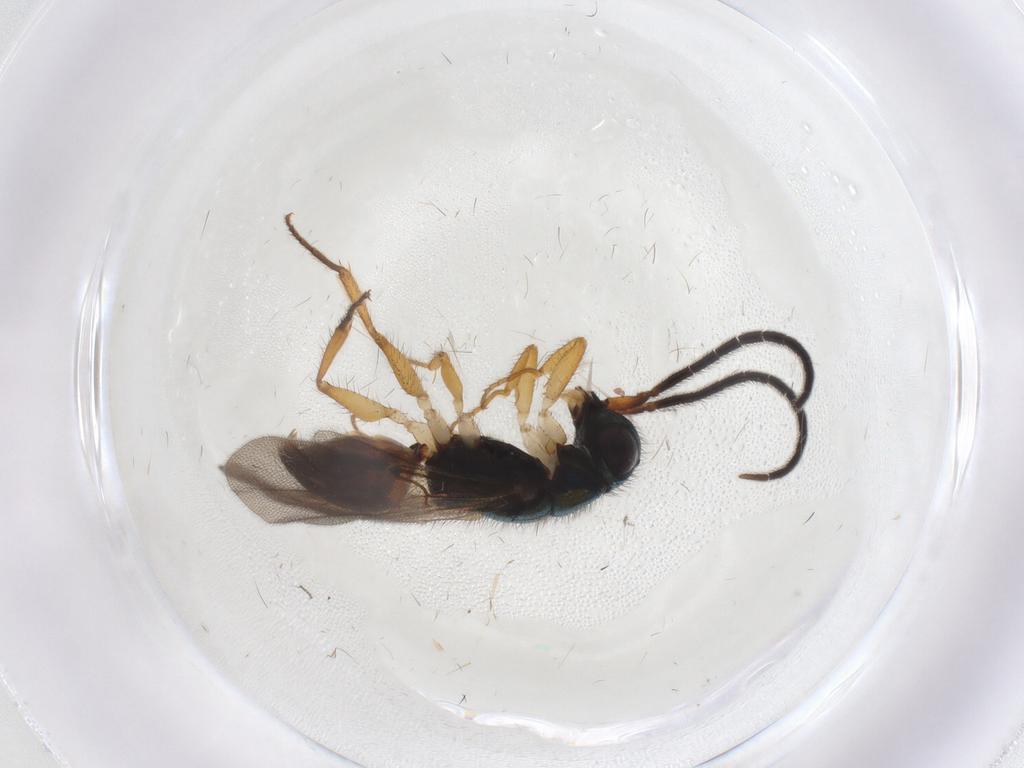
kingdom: Animalia
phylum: Arthropoda
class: Insecta
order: Hymenoptera
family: Chrysididae
